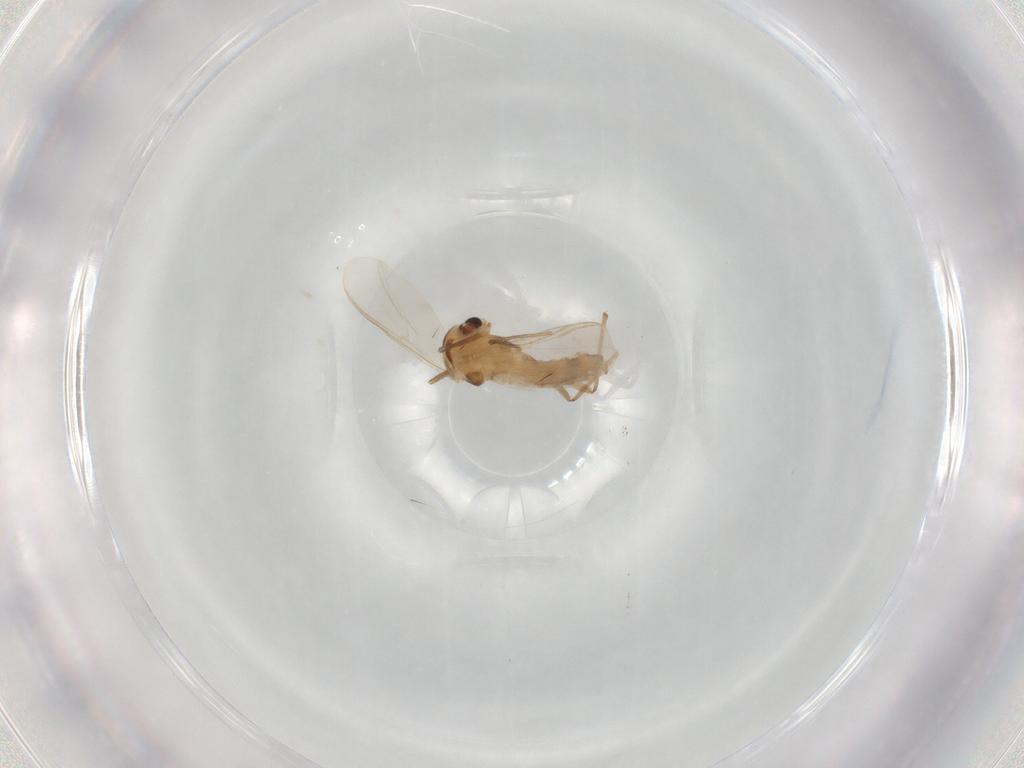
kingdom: Animalia
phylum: Arthropoda
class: Insecta
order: Diptera
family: Chironomidae
